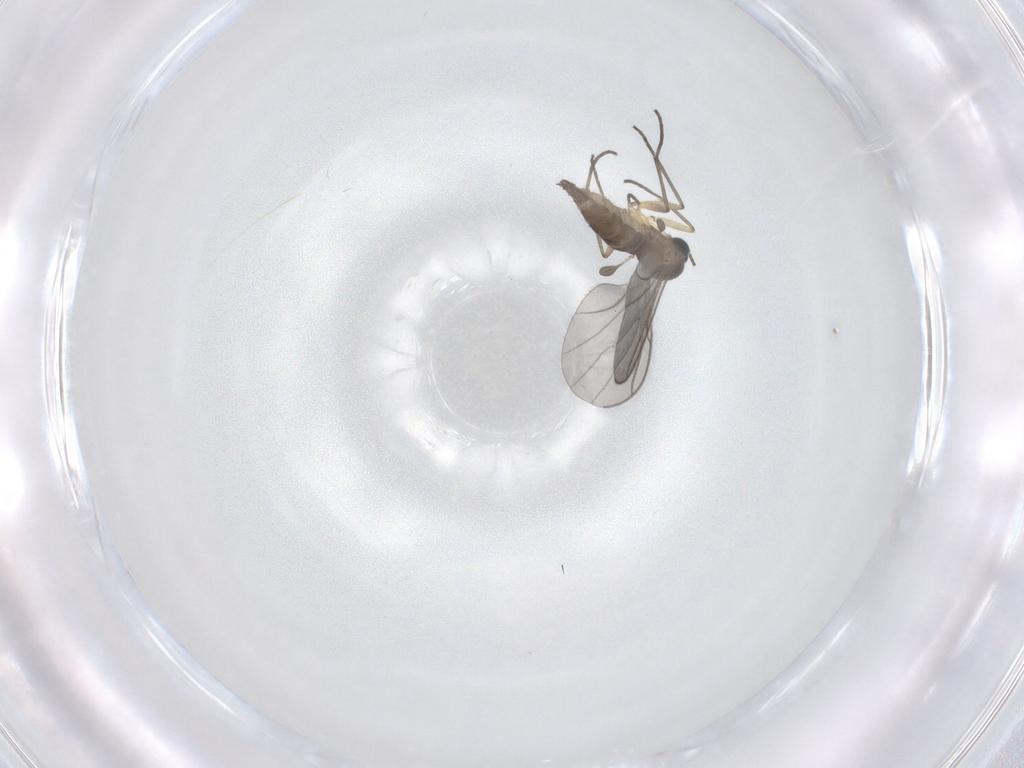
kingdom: Animalia
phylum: Arthropoda
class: Insecta
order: Diptera
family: Sciaridae
